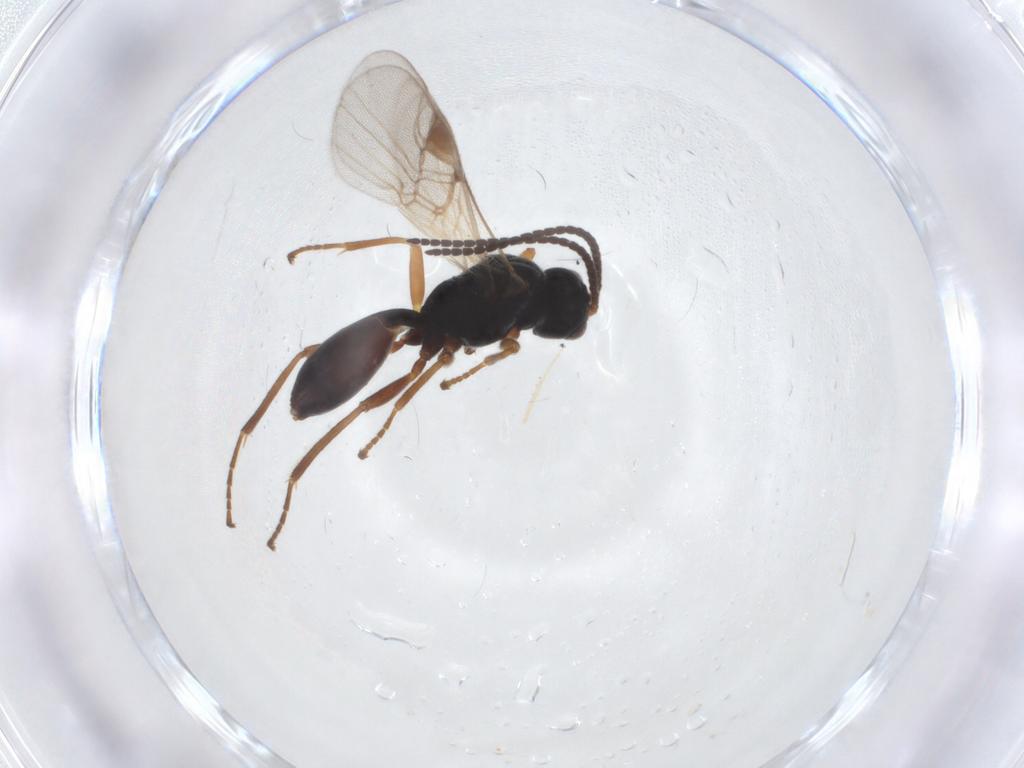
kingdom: Animalia
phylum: Arthropoda
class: Insecta
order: Hymenoptera
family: Braconidae
